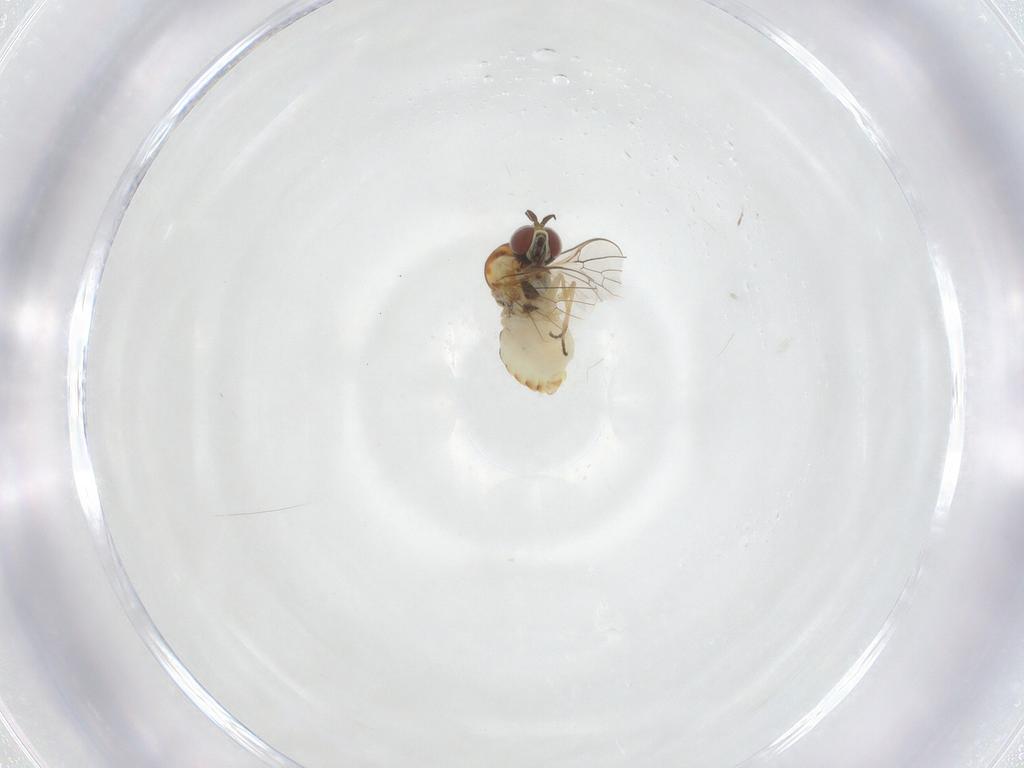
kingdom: Animalia
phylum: Arthropoda
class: Insecta
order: Diptera
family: Bombyliidae
